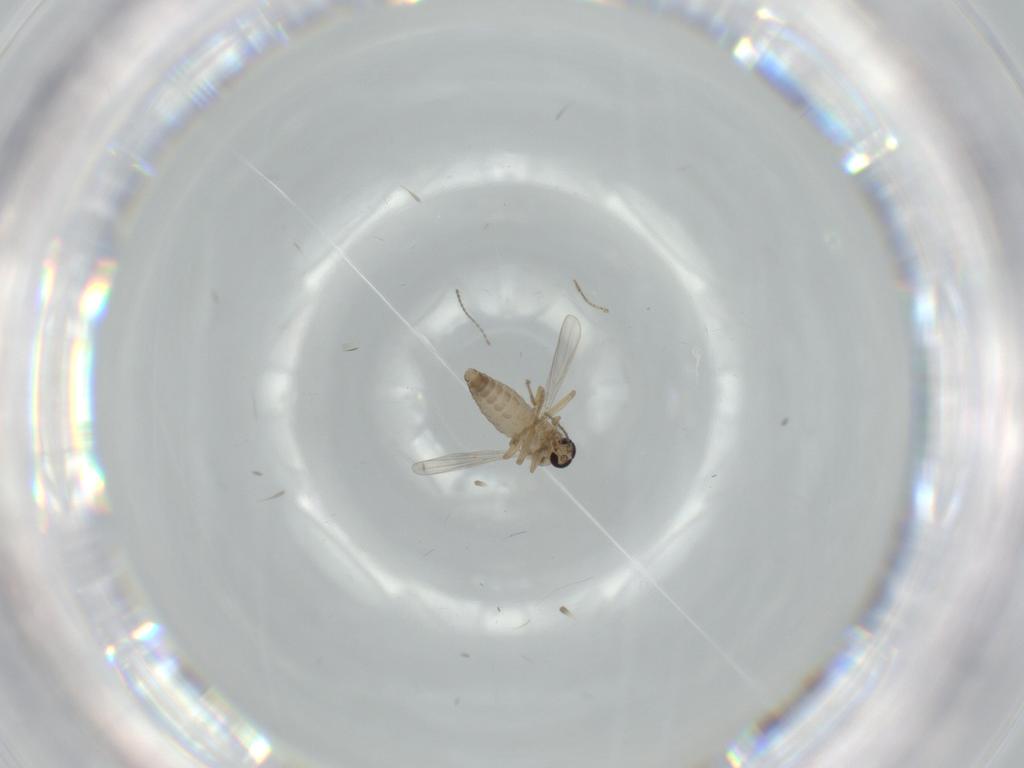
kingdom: Animalia
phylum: Arthropoda
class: Insecta
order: Diptera
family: Ceratopogonidae
